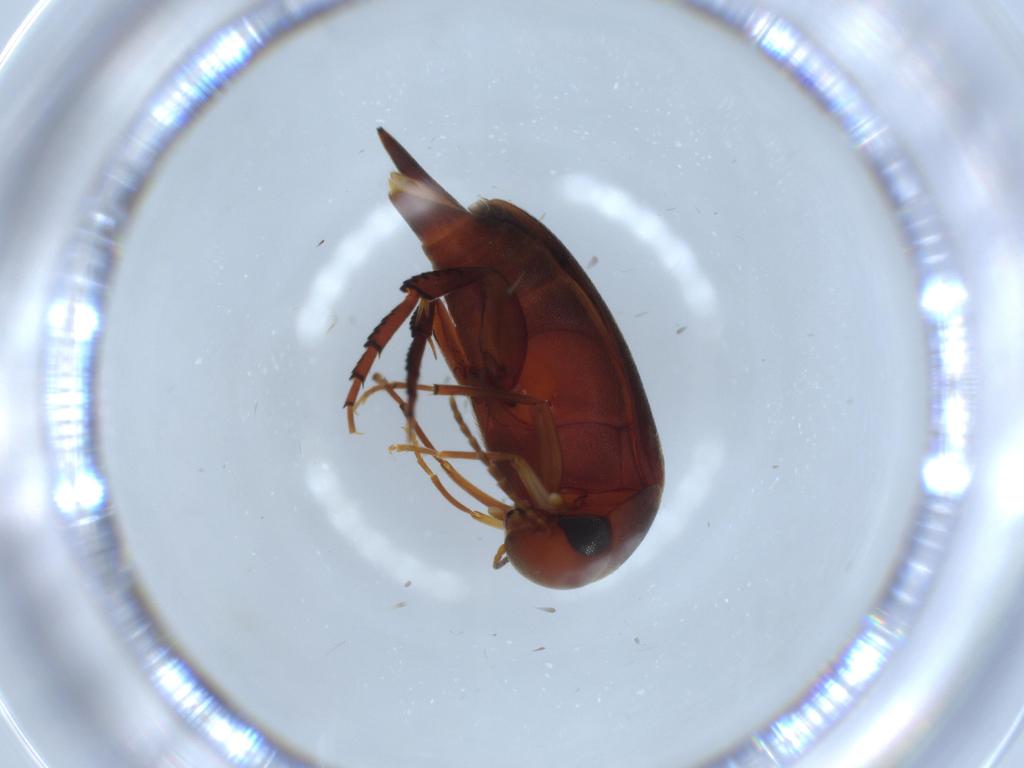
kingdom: Animalia
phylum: Arthropoda
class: Insecta
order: Coleoptera
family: Mordellidae
